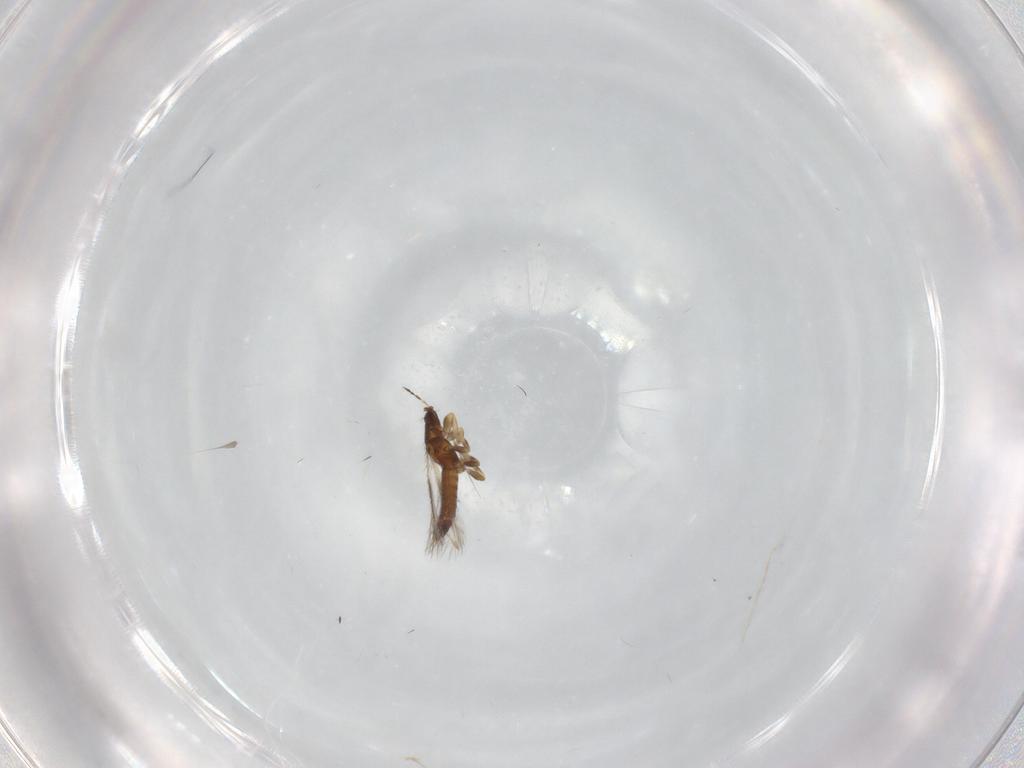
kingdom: Animalia
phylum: Arthropoda
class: Insecta
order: Thysanoptera
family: Thripidae
